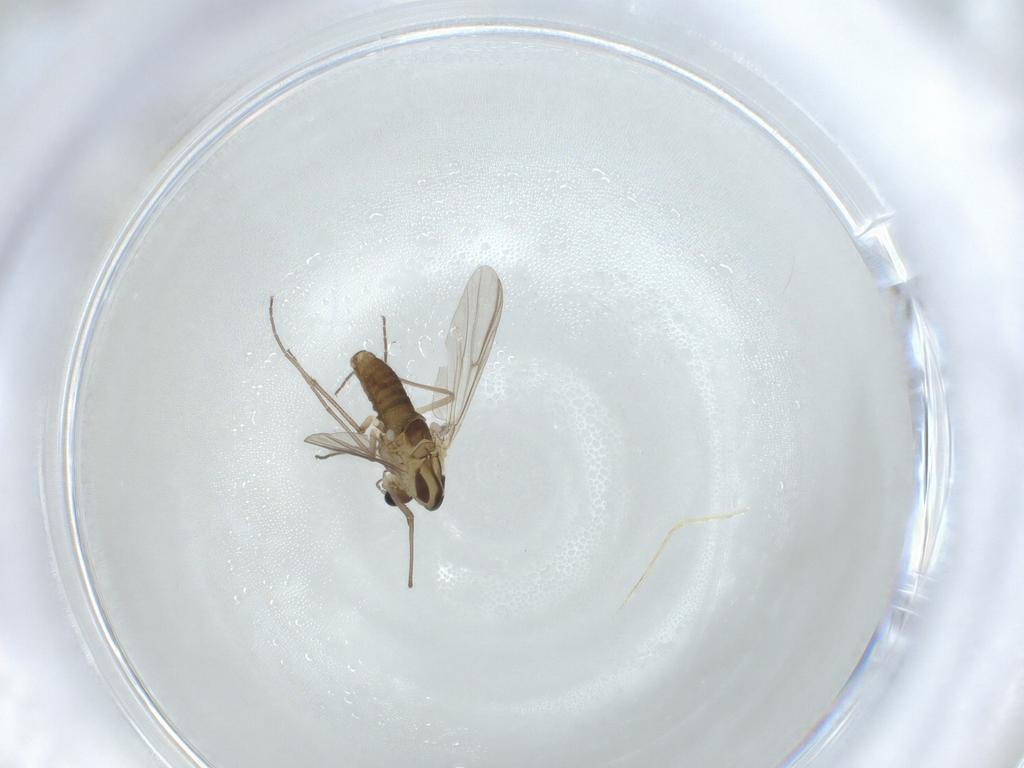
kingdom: Animalia
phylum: Arthropoda
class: Insecta
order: Diptera
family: Chironomidae
